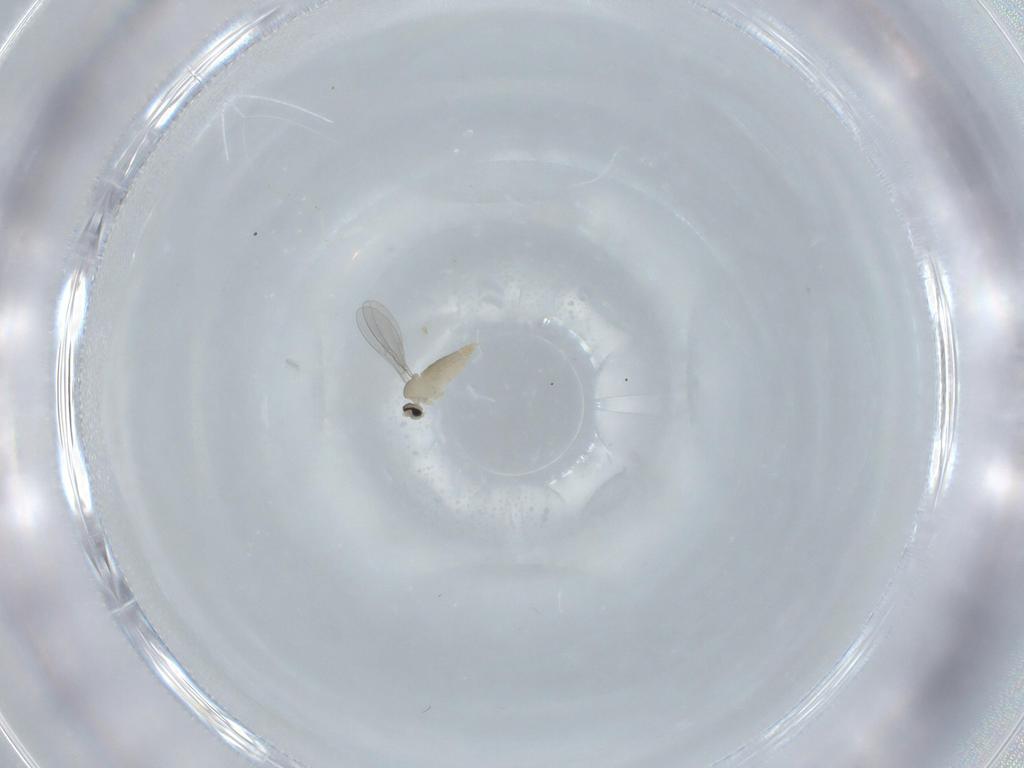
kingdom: Animalia
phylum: Arthropoda
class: Insecta
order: Diptera
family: Cecidomyiidae
